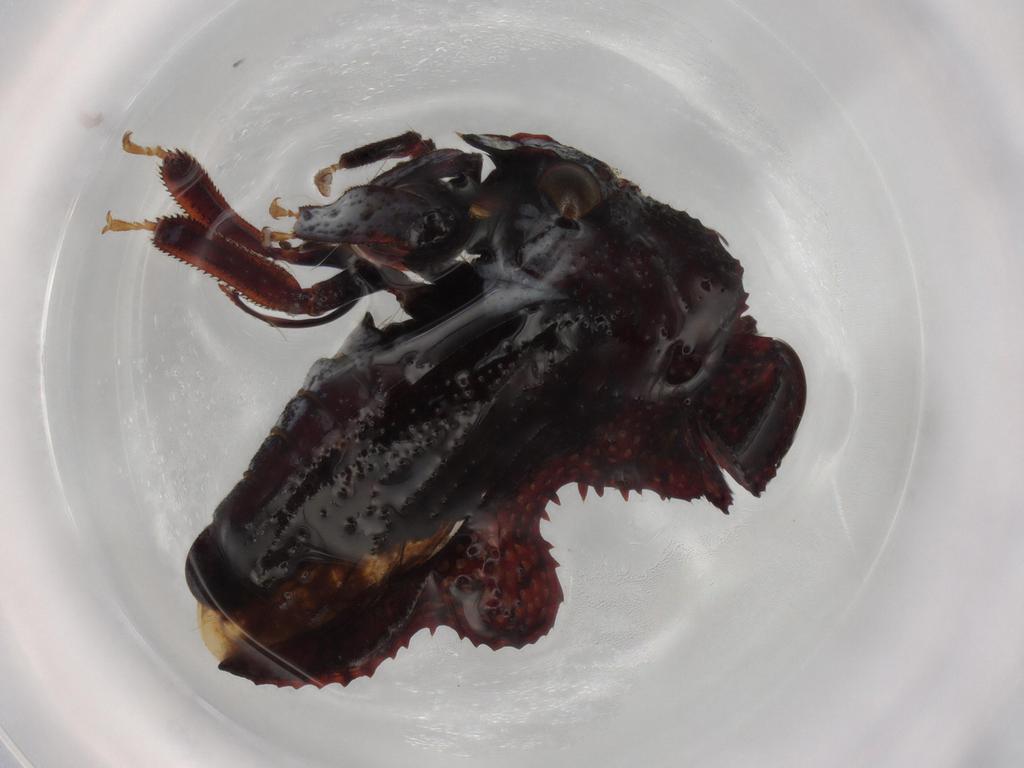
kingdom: Animalia
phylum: Arthropoda
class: Insecta
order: Hemiptera
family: Membracidae
